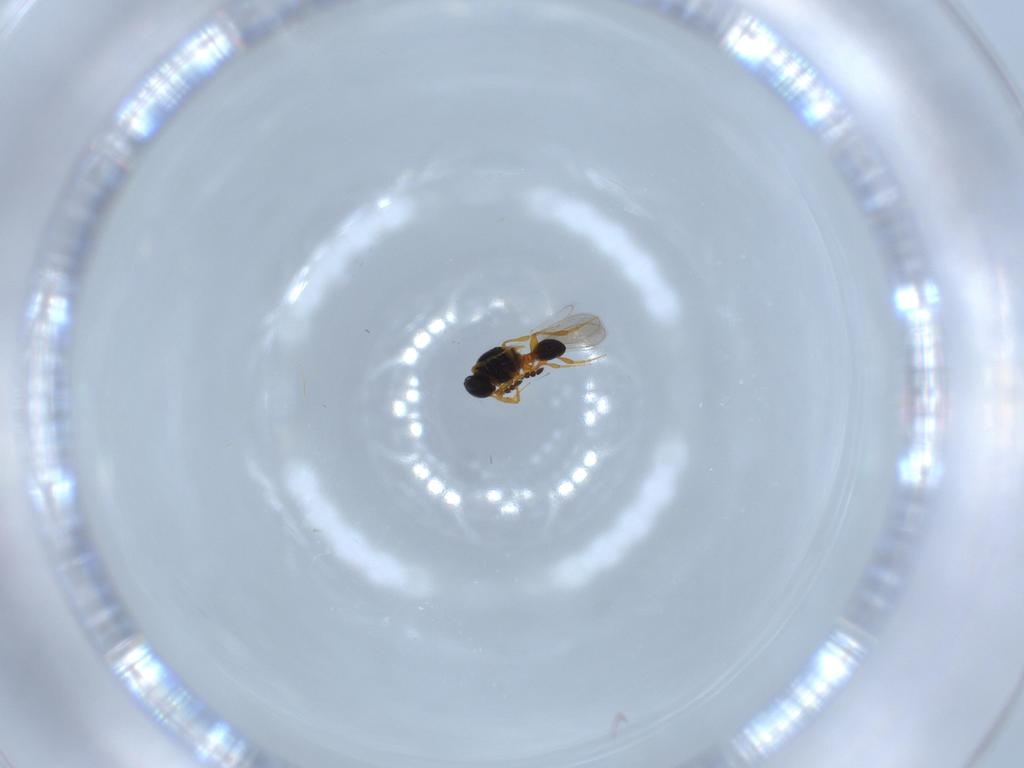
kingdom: Animalia
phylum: Arthropoda
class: Insecta
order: Hymenoptera
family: Platygastridae
